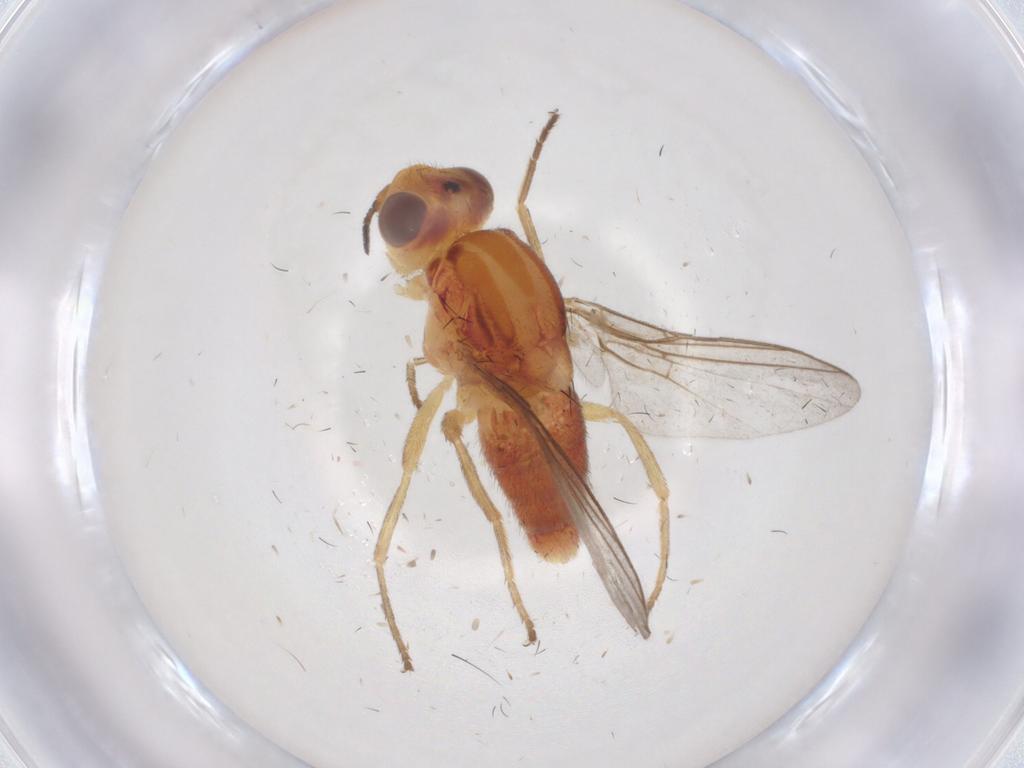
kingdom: Animalia
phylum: Arthropoda
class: Insecta
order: Diptera
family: Chloropidae
